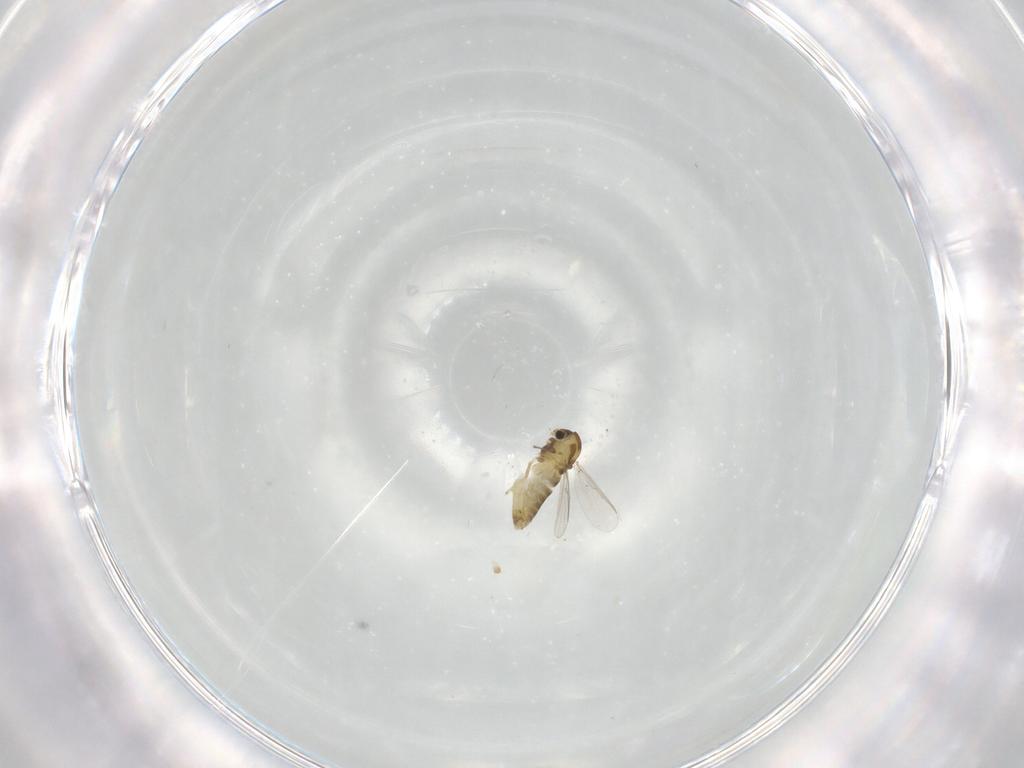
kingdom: Animalia
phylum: Arthropoda
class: Insecta
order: Diptera
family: Chironomidae
